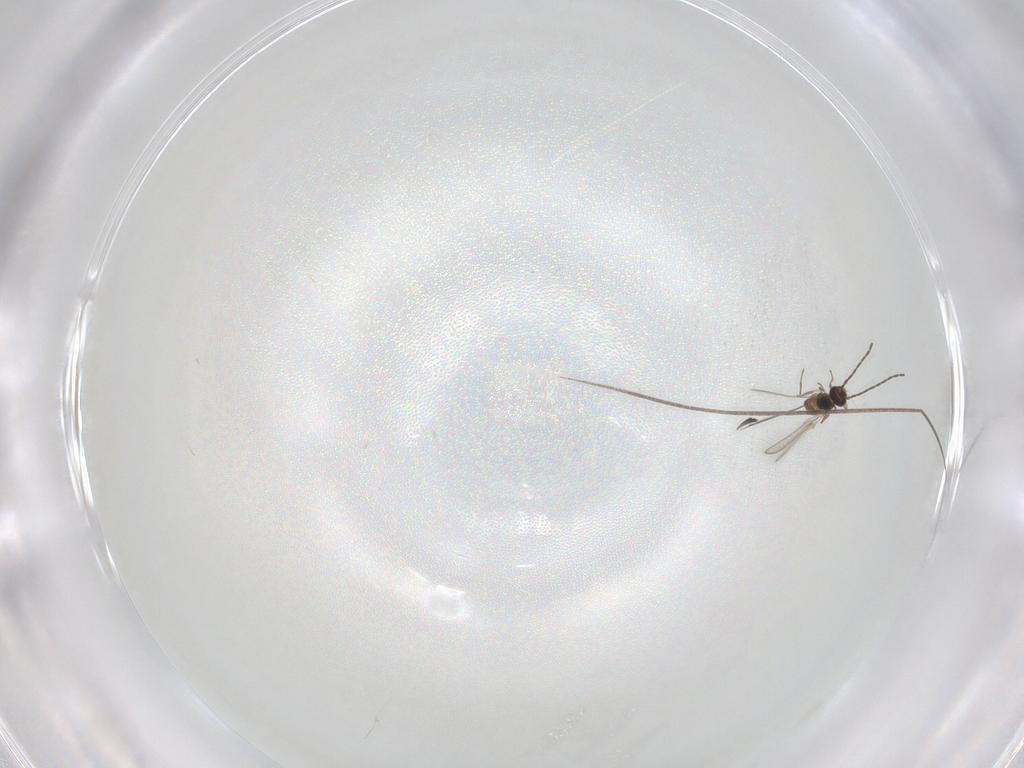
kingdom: Animalia
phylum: Arthropoda
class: Insecta
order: Hymenoptera
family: Mymaridae
